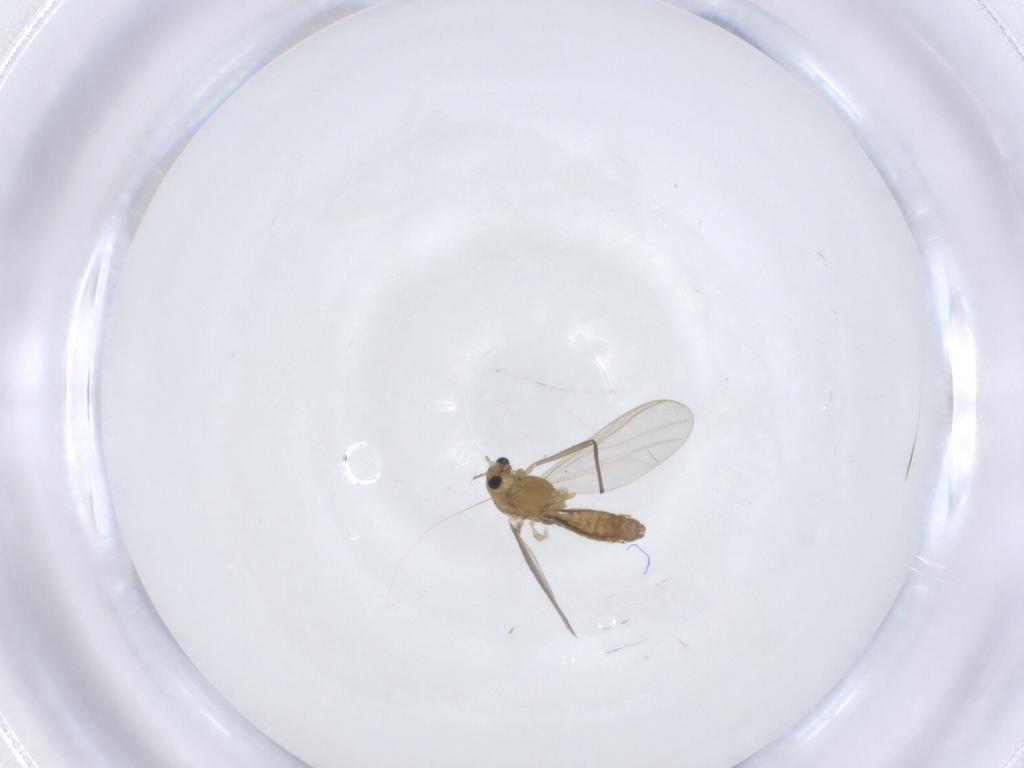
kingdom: Animalia
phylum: Arthropoda
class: Insecta
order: Diptera
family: Chironomidae
